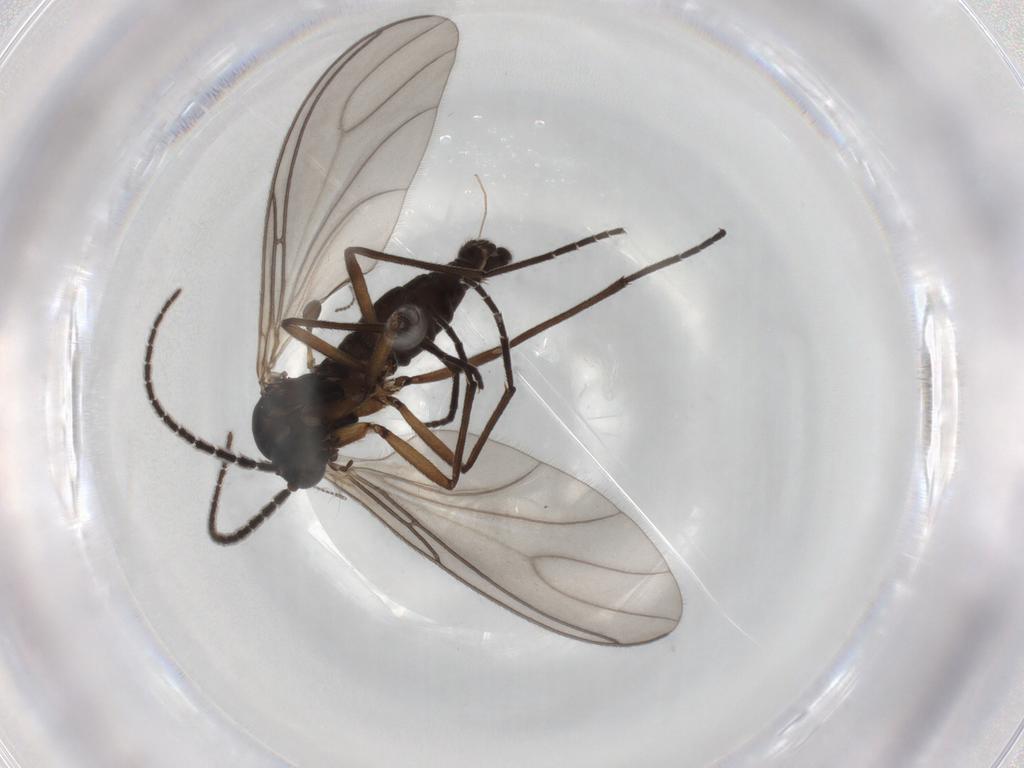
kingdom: Animalia
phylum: Arthropoda
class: Insecta
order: Diptera
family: Sciaridae
